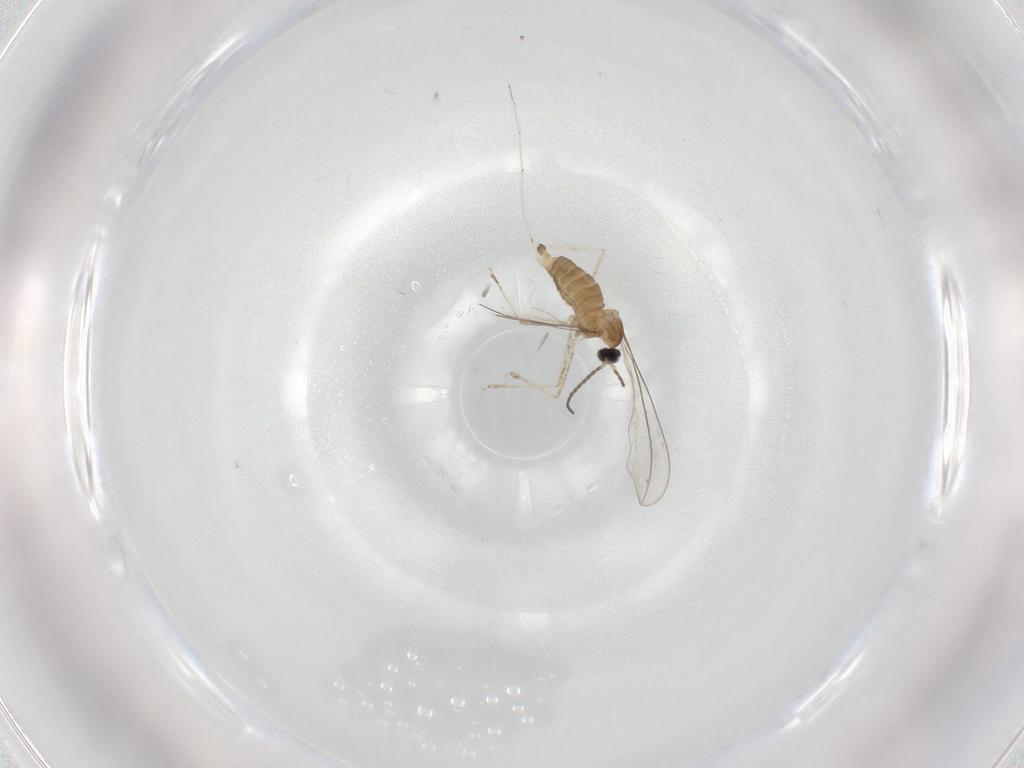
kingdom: Animalia
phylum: Arthropoda
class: Insecta
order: Diptera
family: Cecidomyiidae
